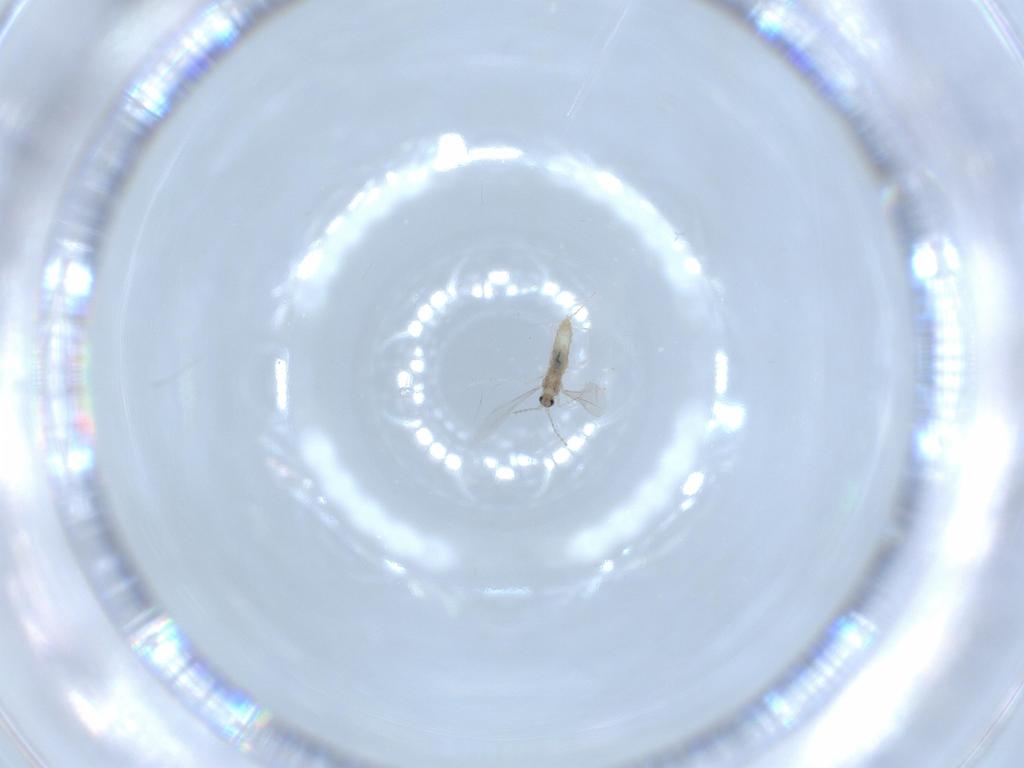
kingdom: Animalia
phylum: Arthropoda
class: Insecta
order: Diptera
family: Cecidomyiidae
